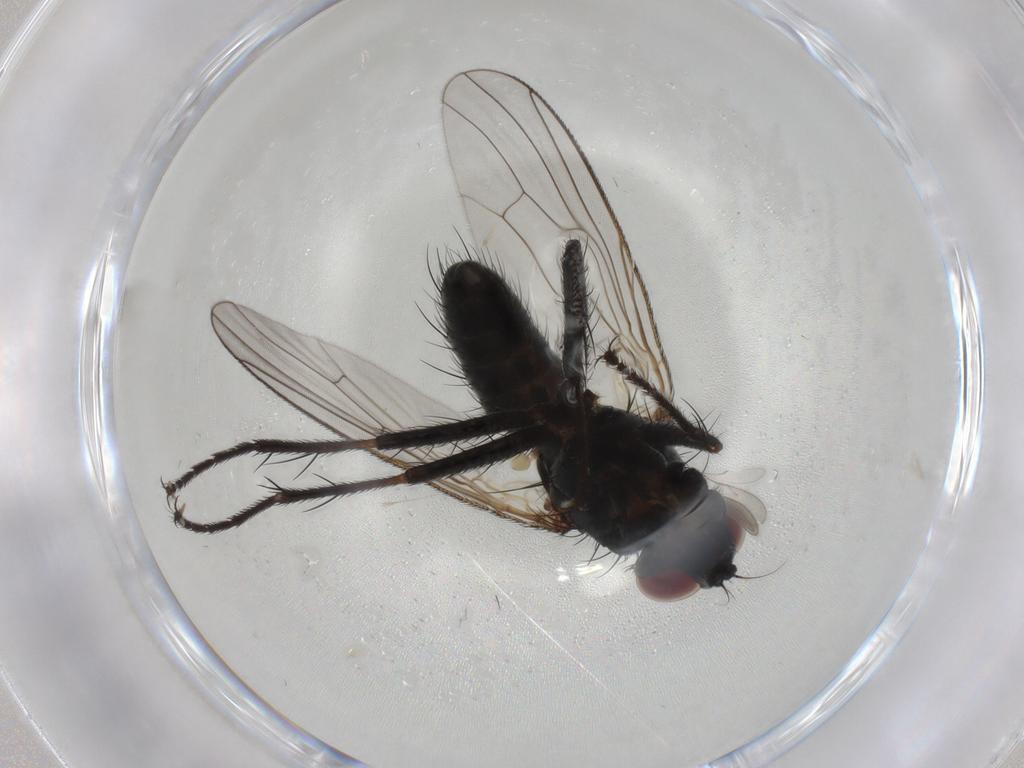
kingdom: Animalia
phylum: Arthropoda
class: Insecta
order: Diptera
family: Muscidae
